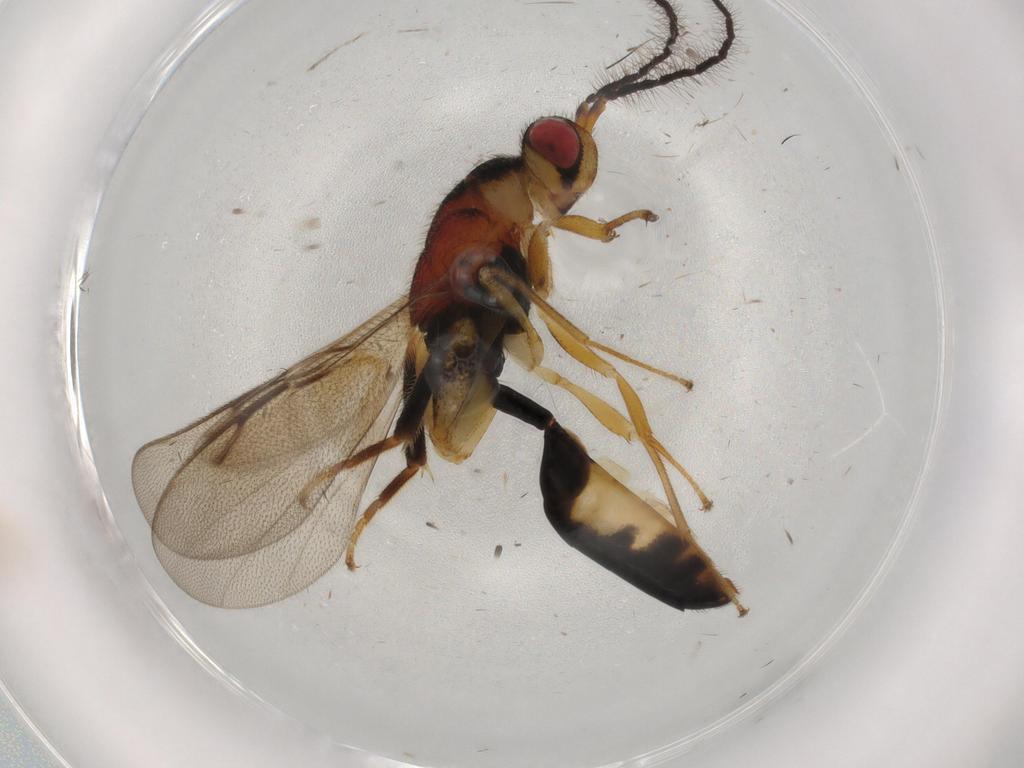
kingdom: Animalia
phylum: Arthropoda
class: Insecta
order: Hymenoptera
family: Eurytomidae
